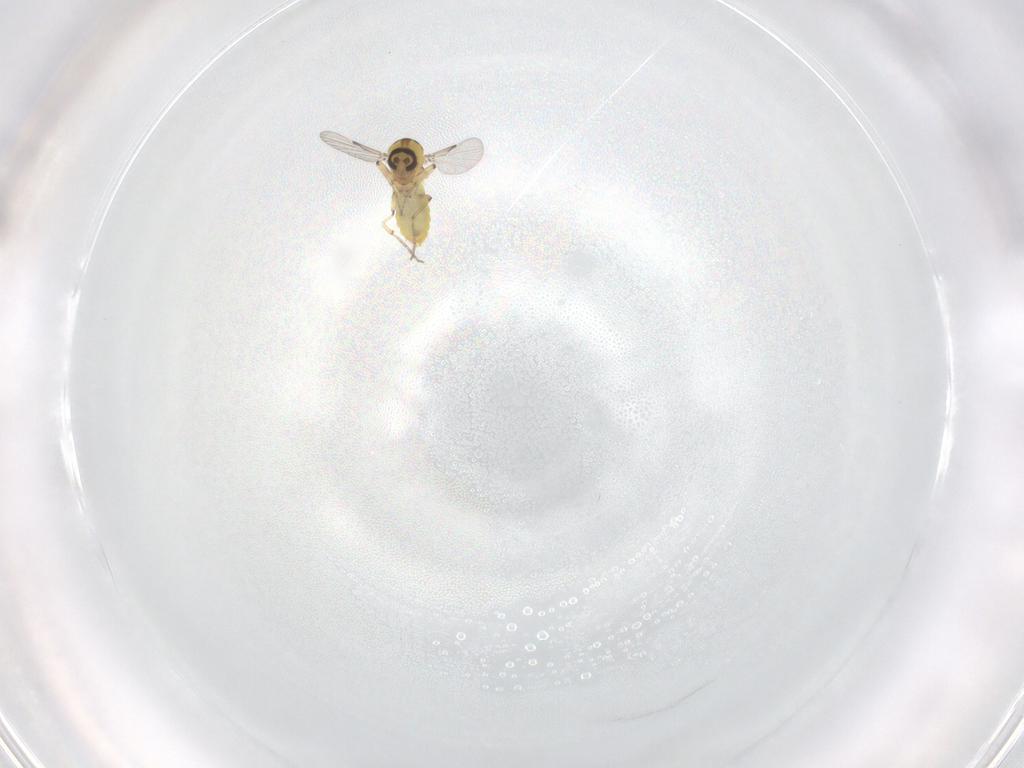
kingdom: Animalia
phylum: Arthropoda
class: Insecta
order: Diptera
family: Ceratopogonidae
